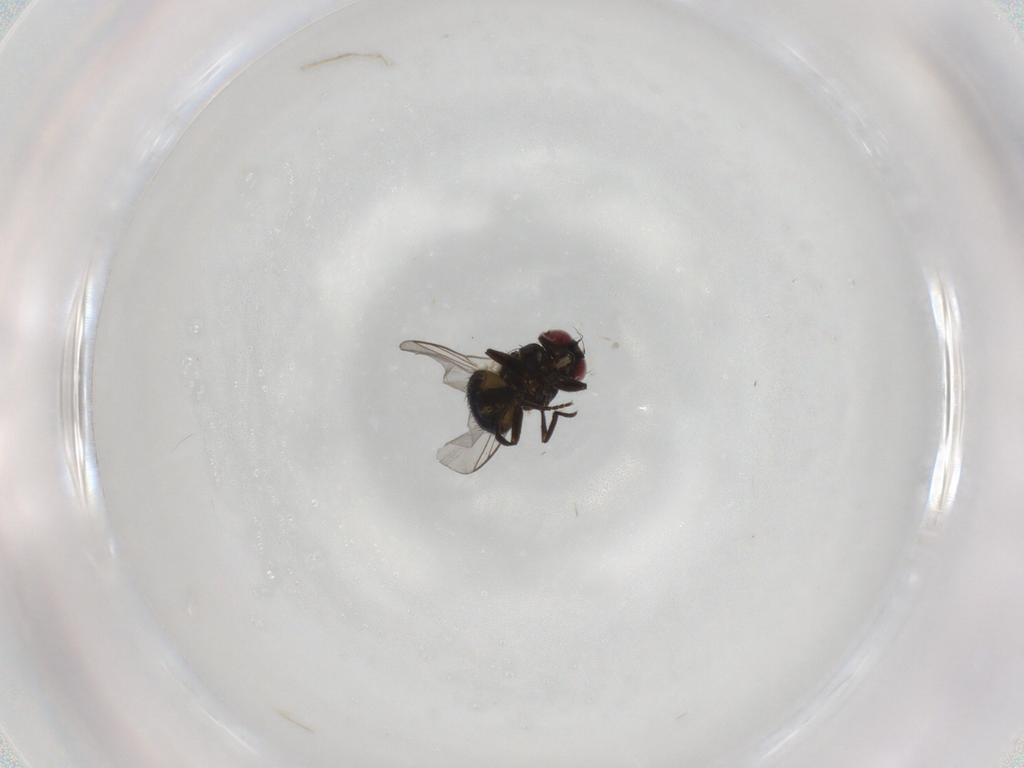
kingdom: Animalia
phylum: Arthropoda
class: Insecta
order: Diptera
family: Agromyzidae
